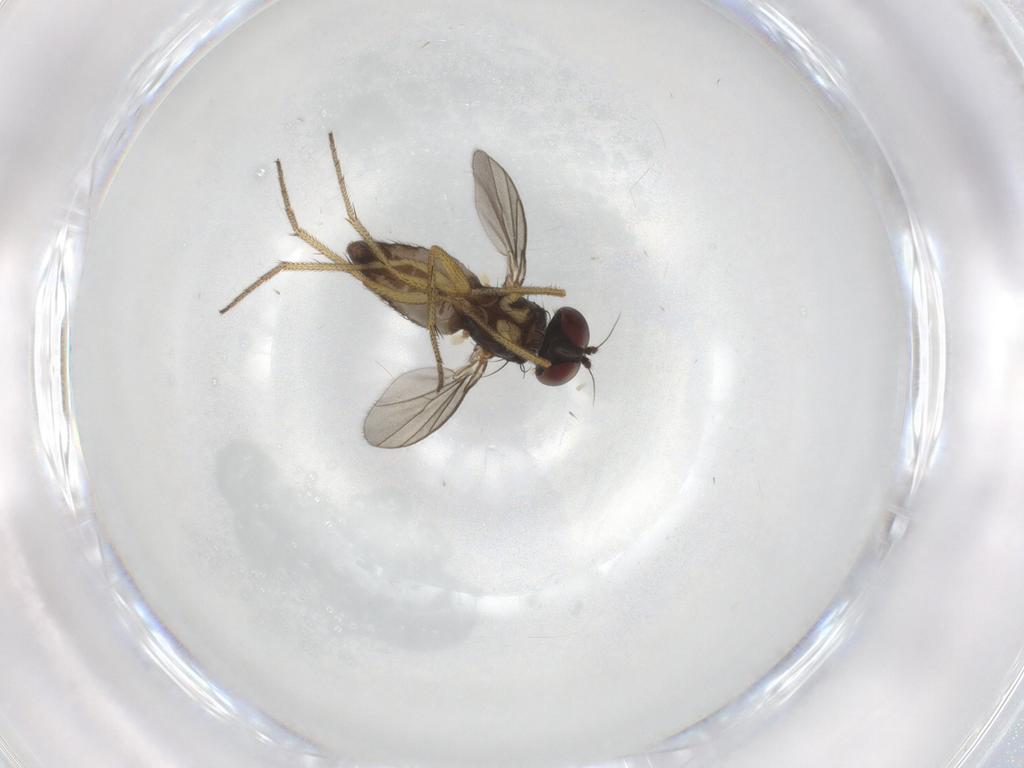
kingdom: Animalia
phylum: Arthropoda
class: Insecta
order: Diptera
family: Dolichopodidae
